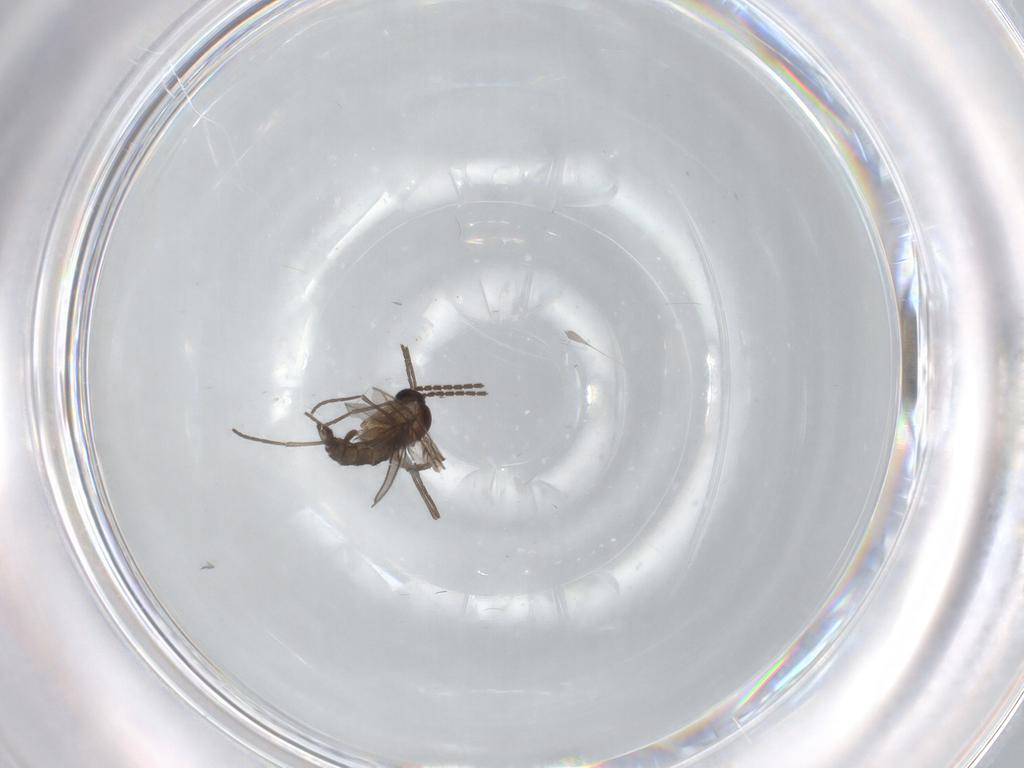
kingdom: Animalia
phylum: Arthropoda
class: Insecta
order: Diptera
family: Sciaridae
